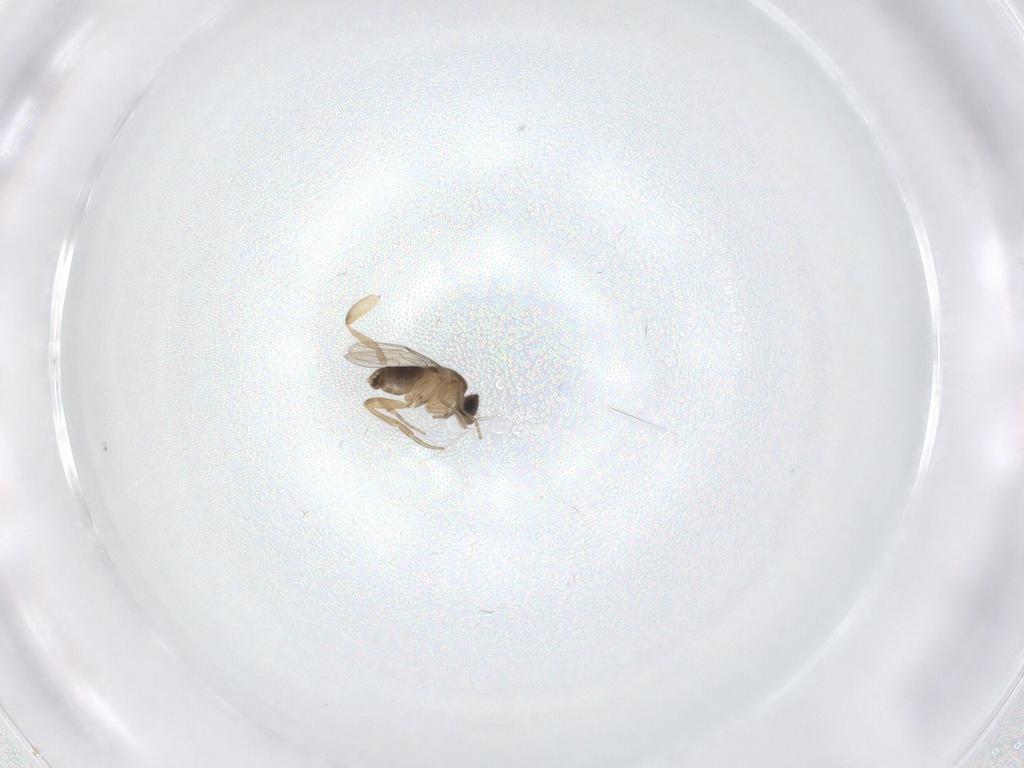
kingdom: Animalia
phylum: Arthropoda
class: Insecta
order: Diptera
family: Phoridae
